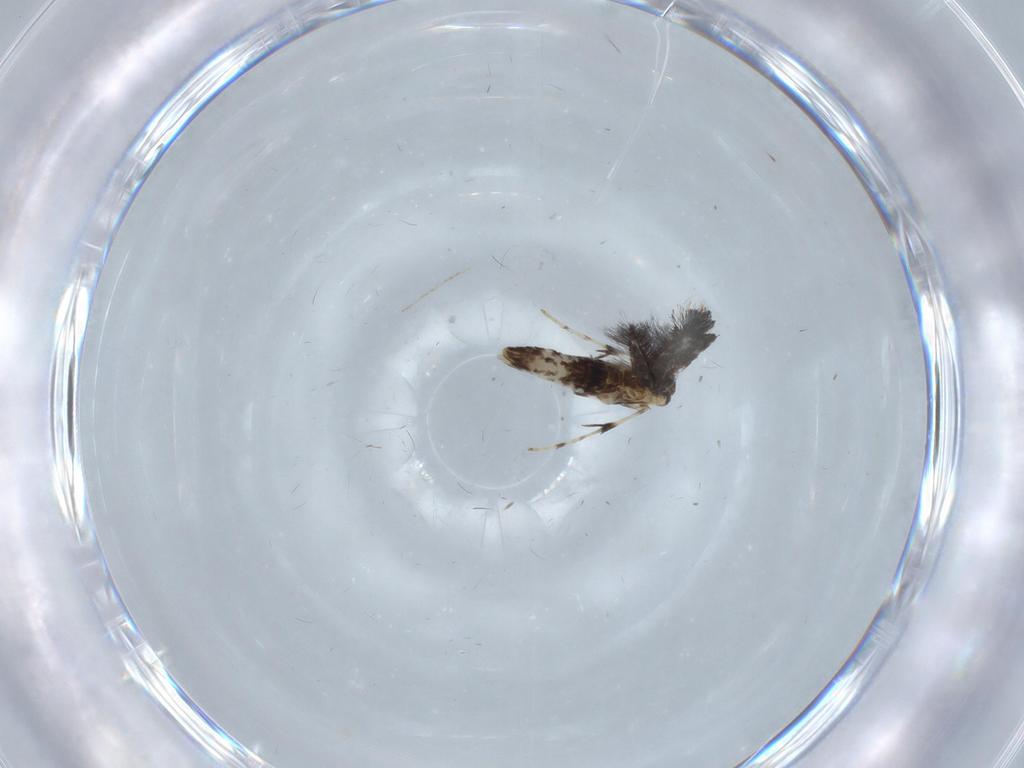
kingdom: Animalia
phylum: Arthropoda
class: Insecta
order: Lepidoptera
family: Gracillariidae
